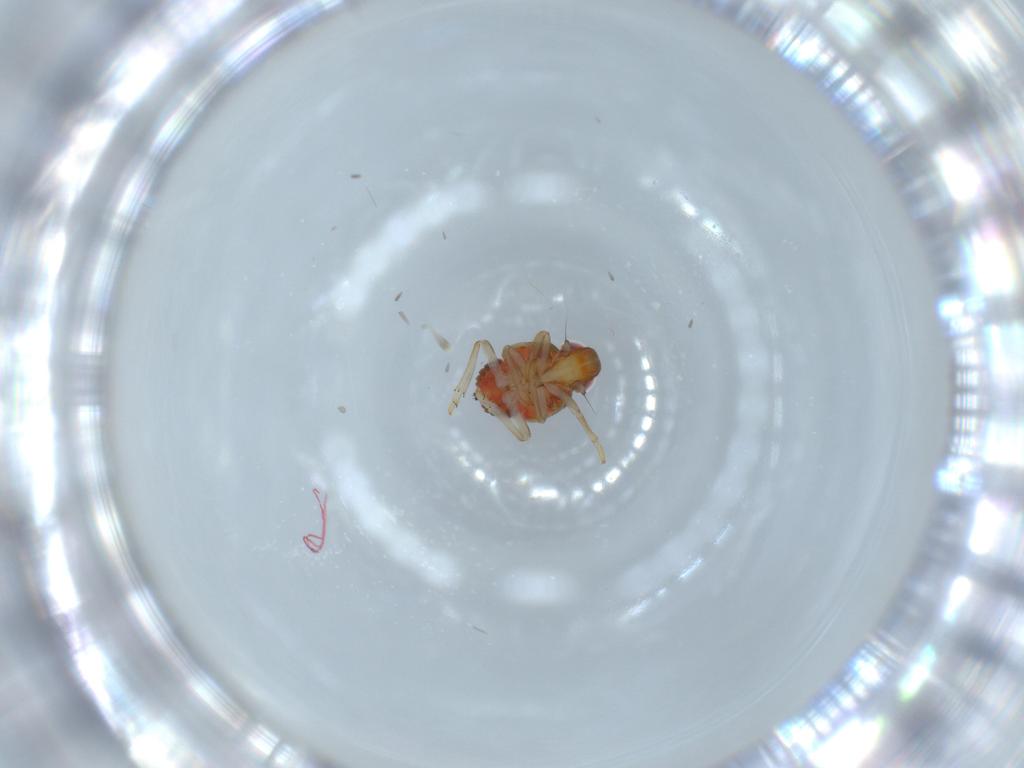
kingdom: Animalia
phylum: Arthropoda
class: Insecta
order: Hemiptera
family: Issidae
